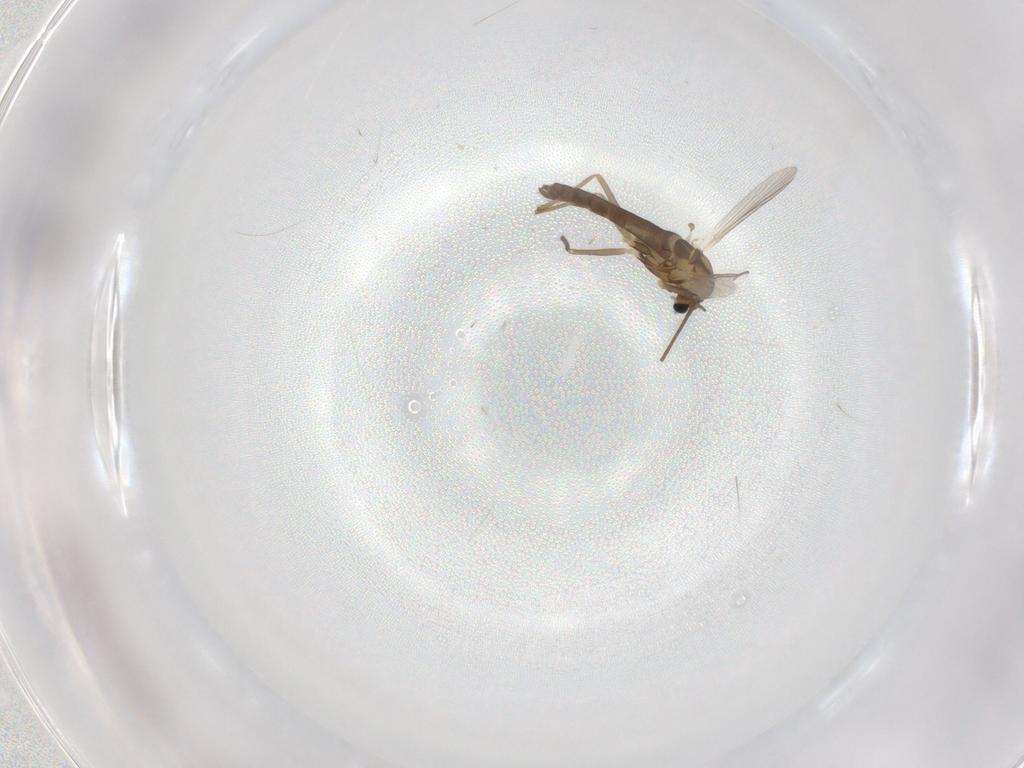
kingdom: Animalia
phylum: Arthropoda
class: Insecta
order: Diptera
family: Chironomidae
